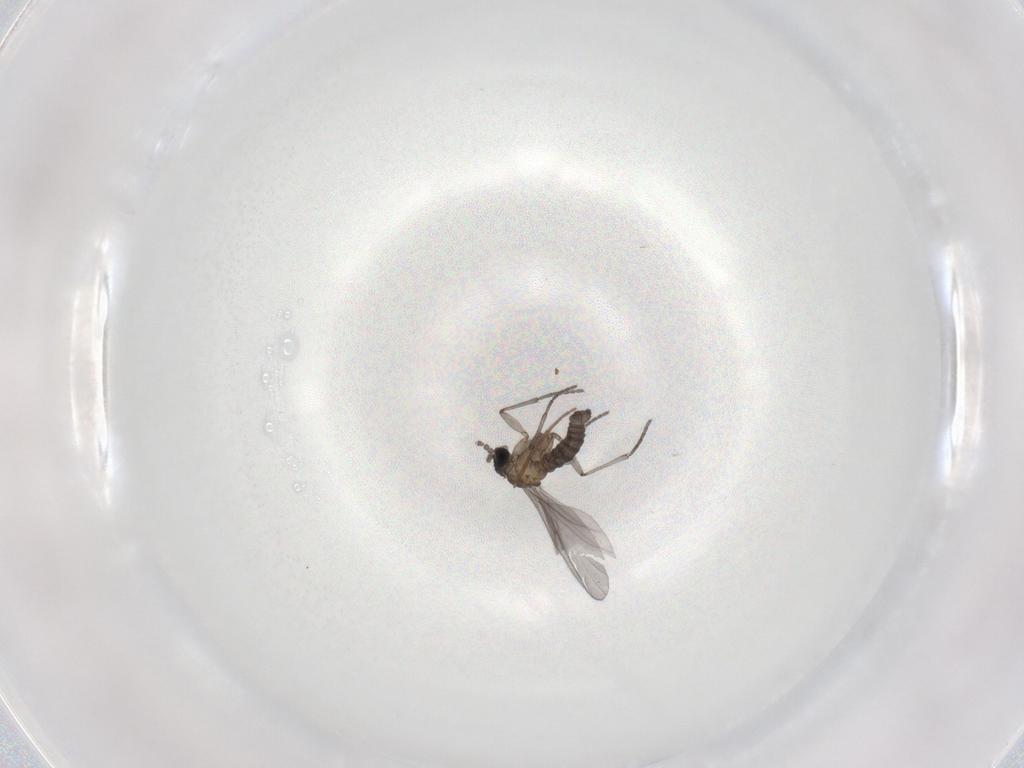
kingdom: Animalia
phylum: Arthropoda
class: Insecta
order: Diptera
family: Chironomidae
